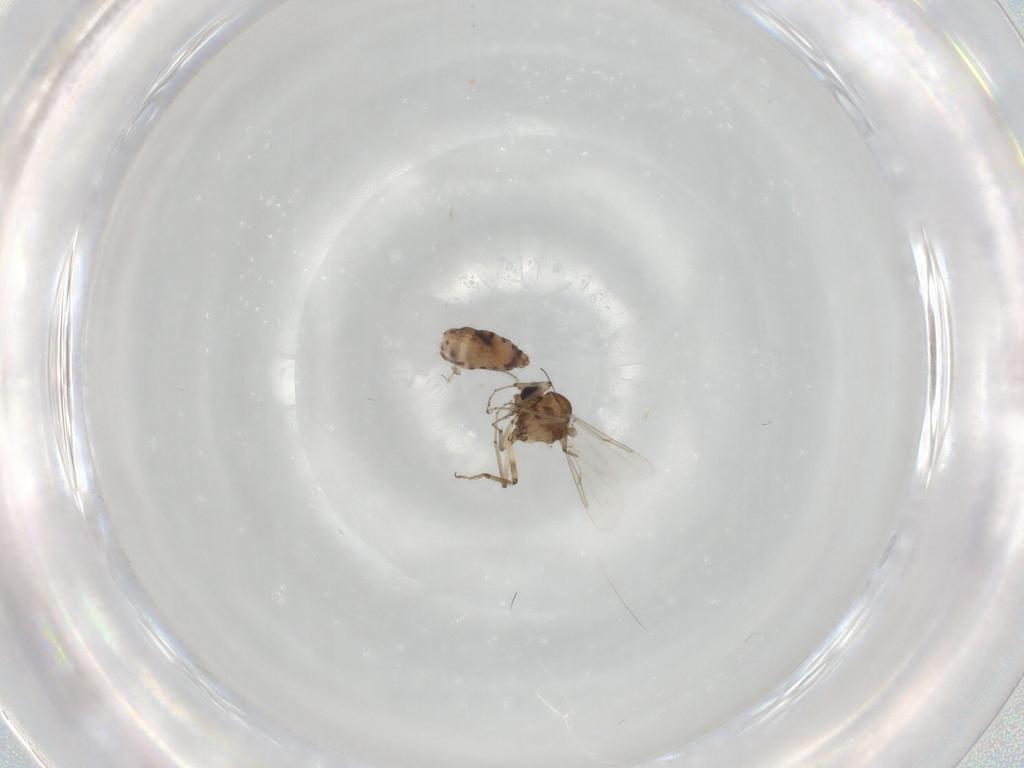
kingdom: Animalia
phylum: Arthropoda
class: Insecta
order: Diptera
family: Ceratopogonidae
